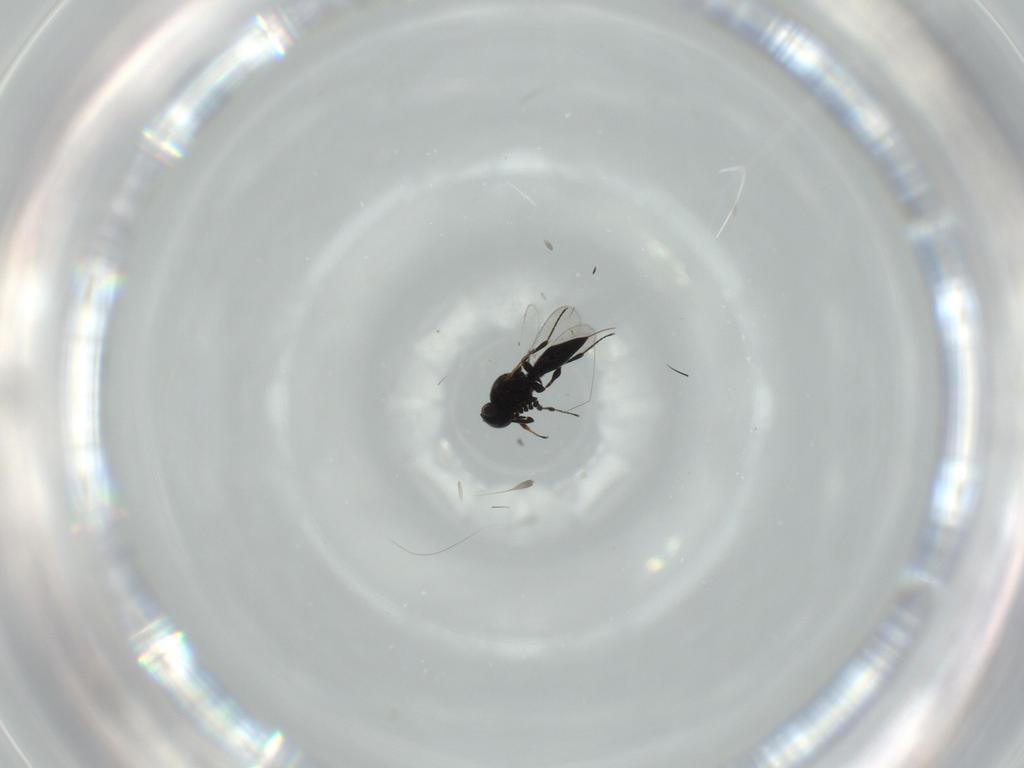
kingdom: Animalia
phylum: Arthropoda
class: Insecta
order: Hymenoptera
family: Platygastridae
